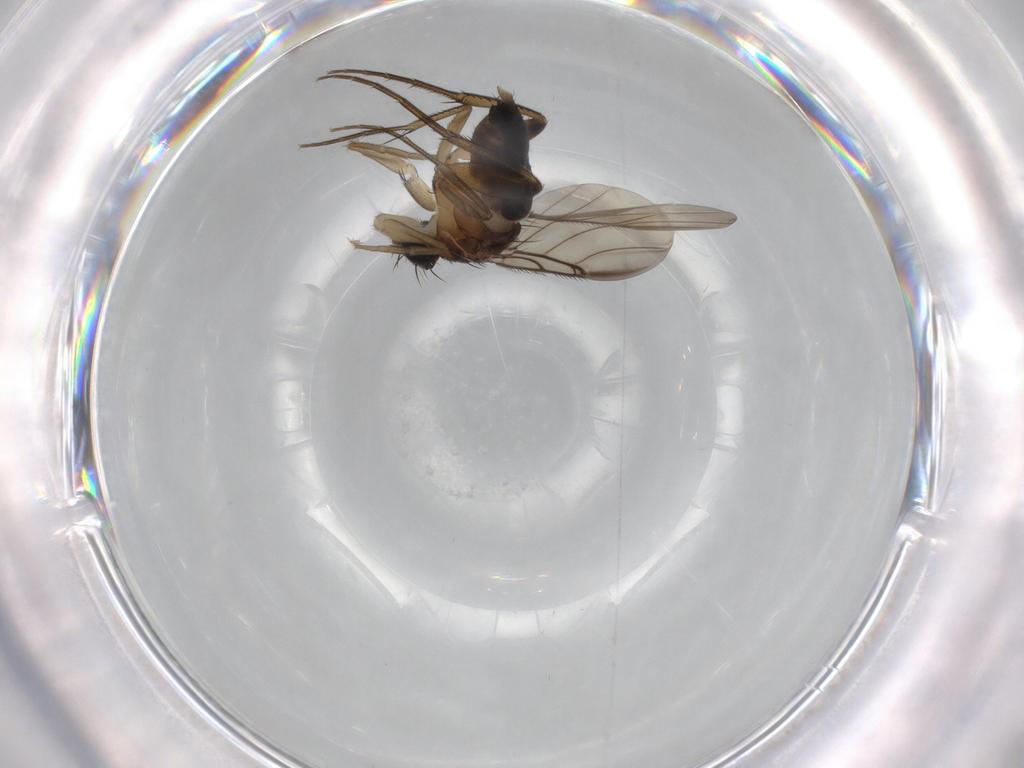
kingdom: Animalia
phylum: Arthropoda
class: Insecta
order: Diptera
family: Phoridae
